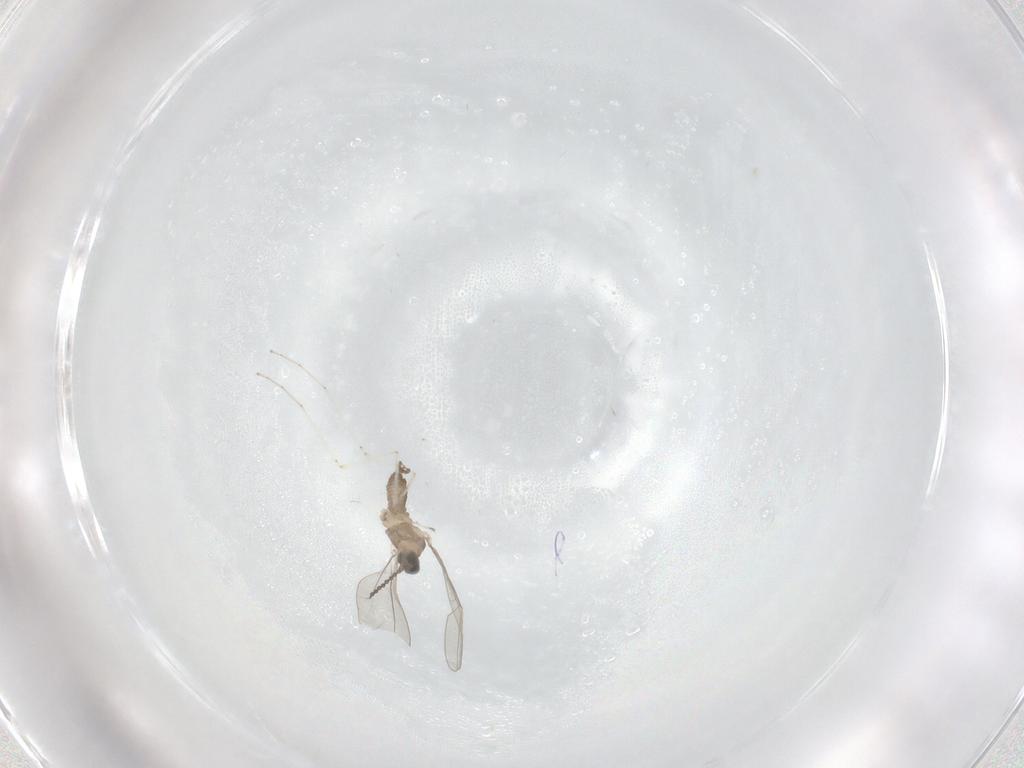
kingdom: Animalia
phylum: Arthropoda
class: Insecta
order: Diptera
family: Cecidomyiidae
